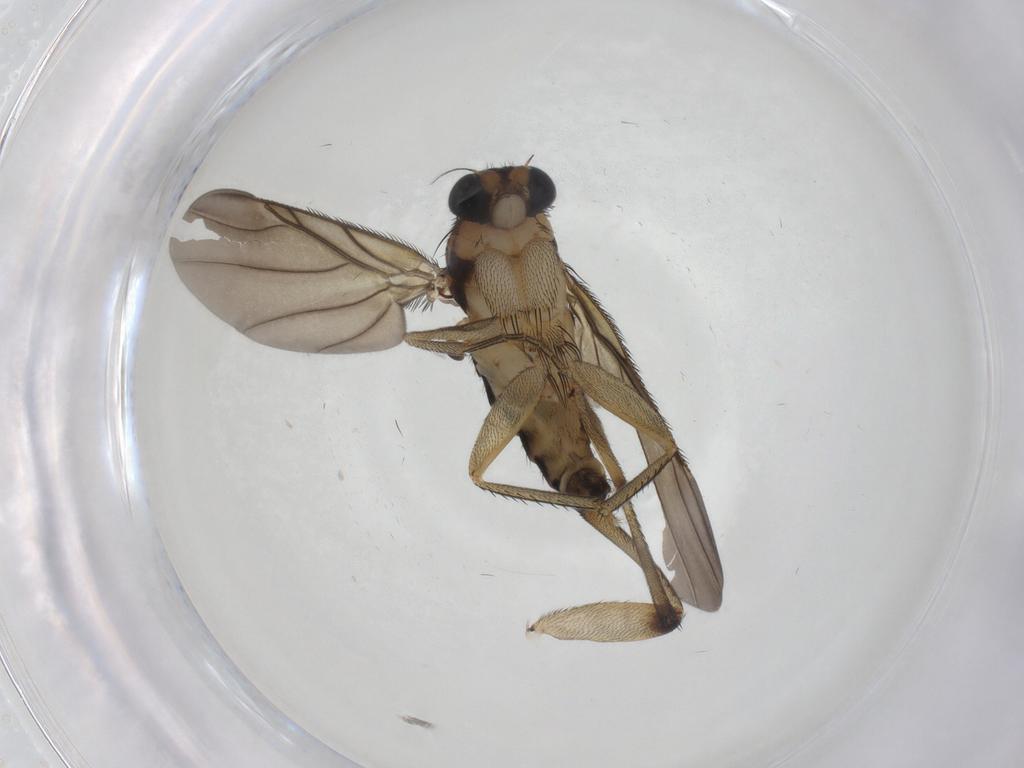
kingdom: Animalia
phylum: Arthropoda
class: Insecta
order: Diptera
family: Phoridae
